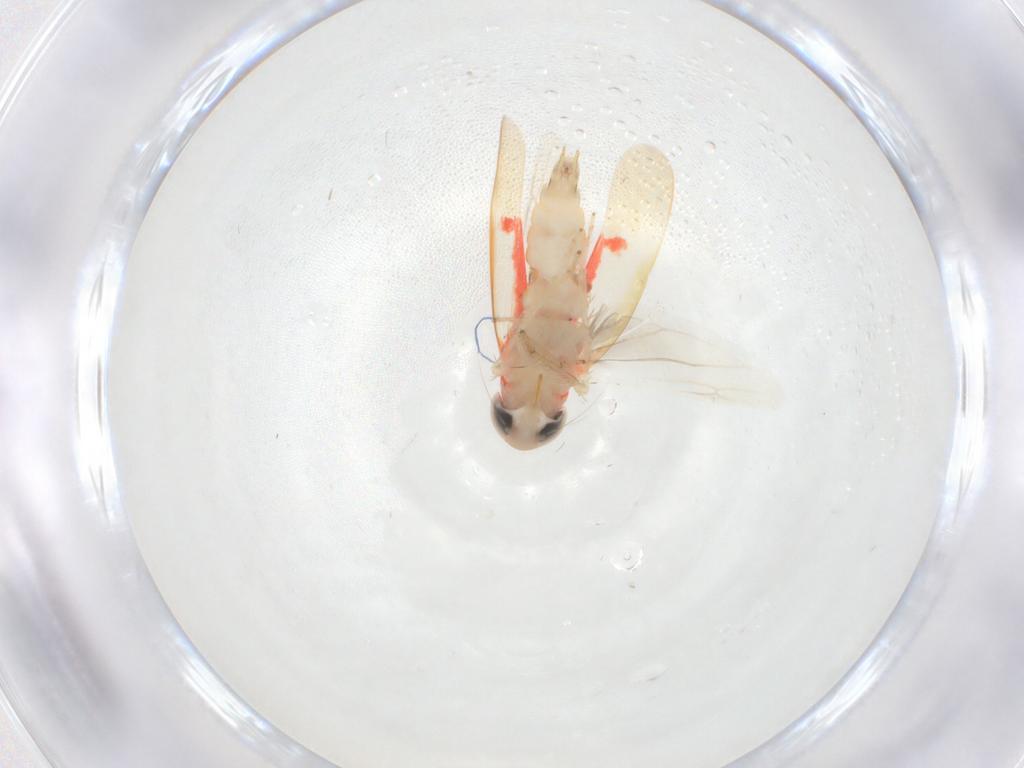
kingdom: Animalia
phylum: Arthropoda
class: Insecta
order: Hemiptera
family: Cicadellidae
